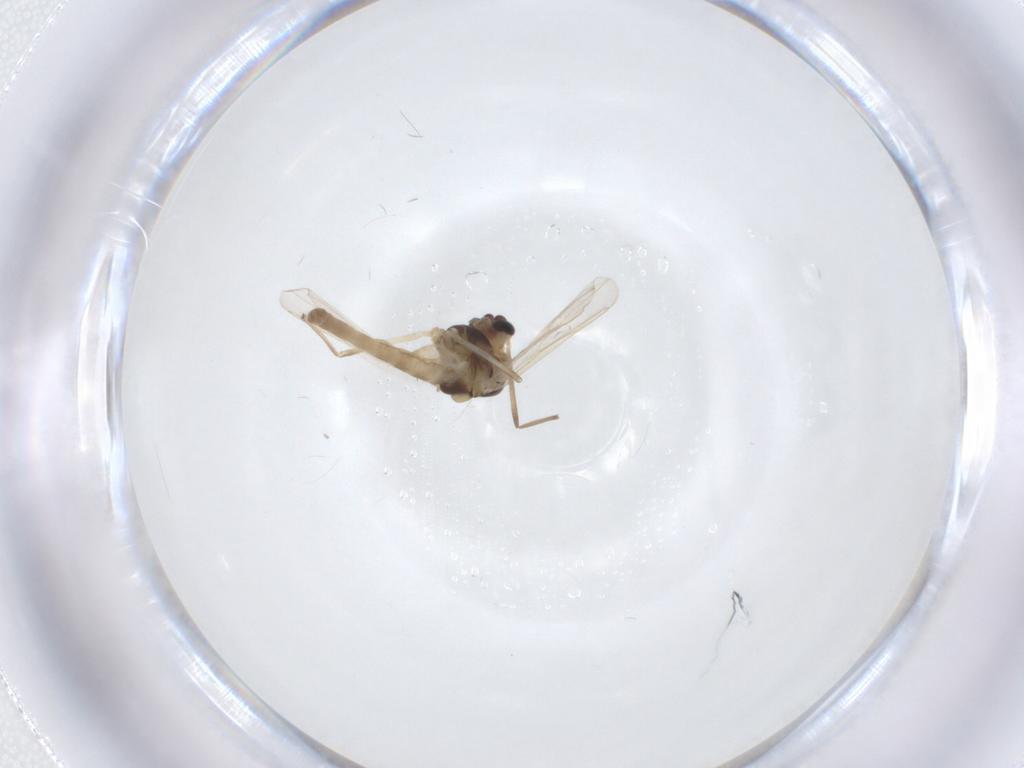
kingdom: Animalia
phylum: Arthropoda
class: Insecta
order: Diptera
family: Chironomidae
